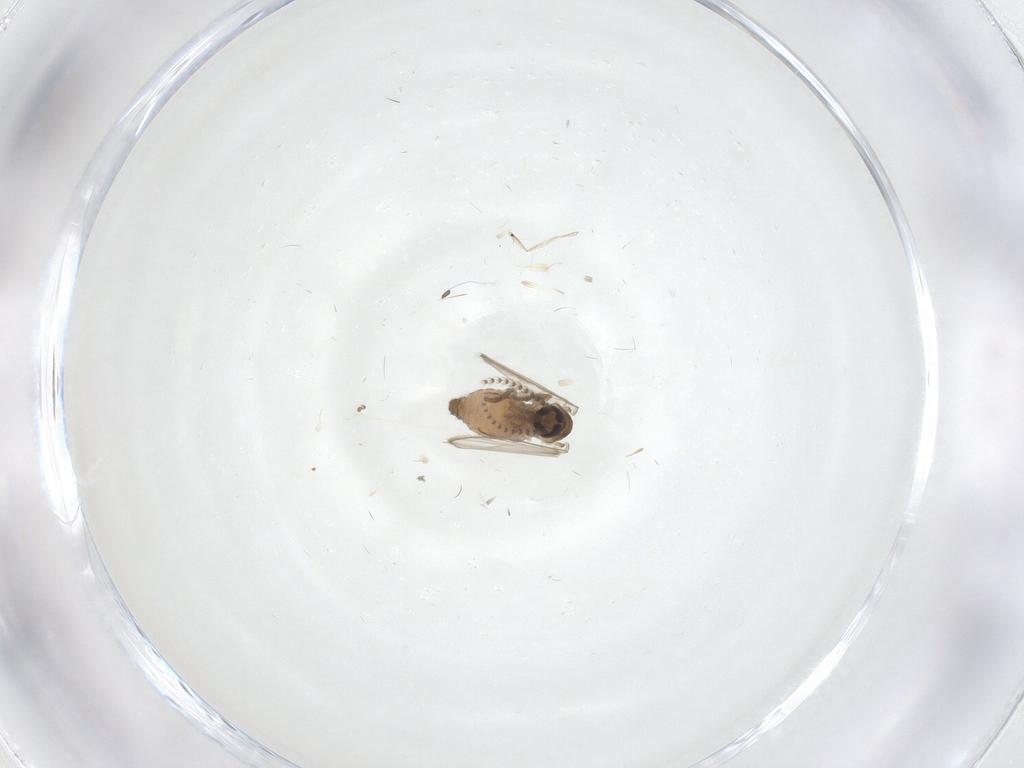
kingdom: Animalia
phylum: Arthropoda
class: Insecta
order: Diptera
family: Psychodidae
